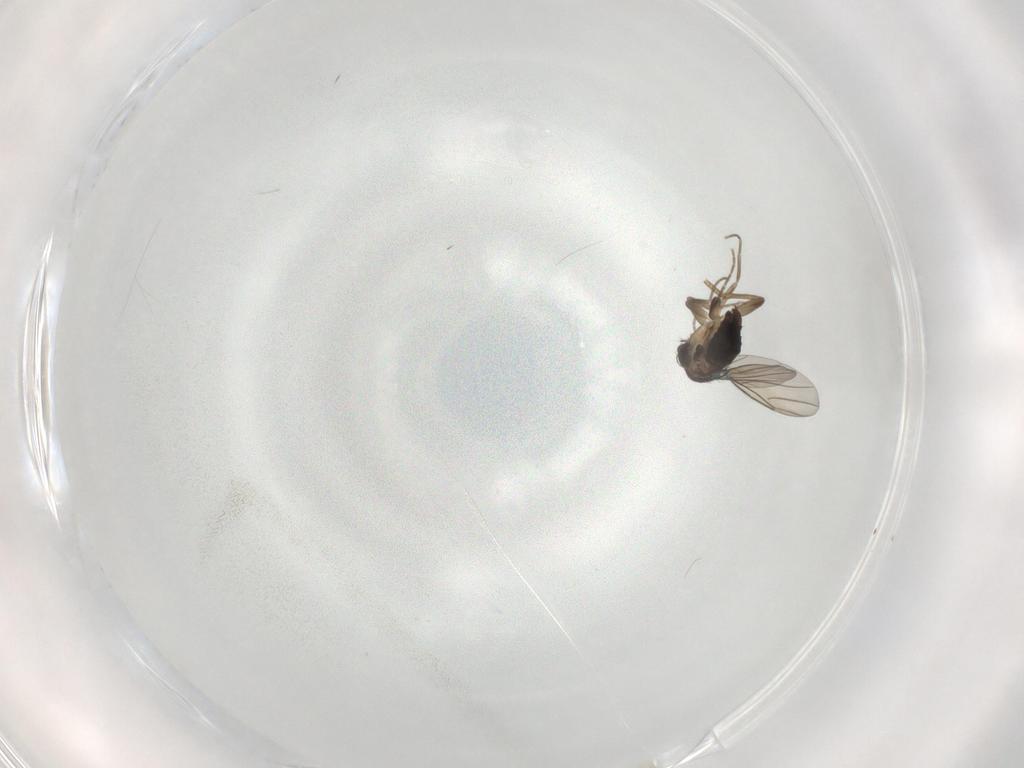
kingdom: Animalia
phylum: Arthropoda
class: Insecta
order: Diptera
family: Phoridae
